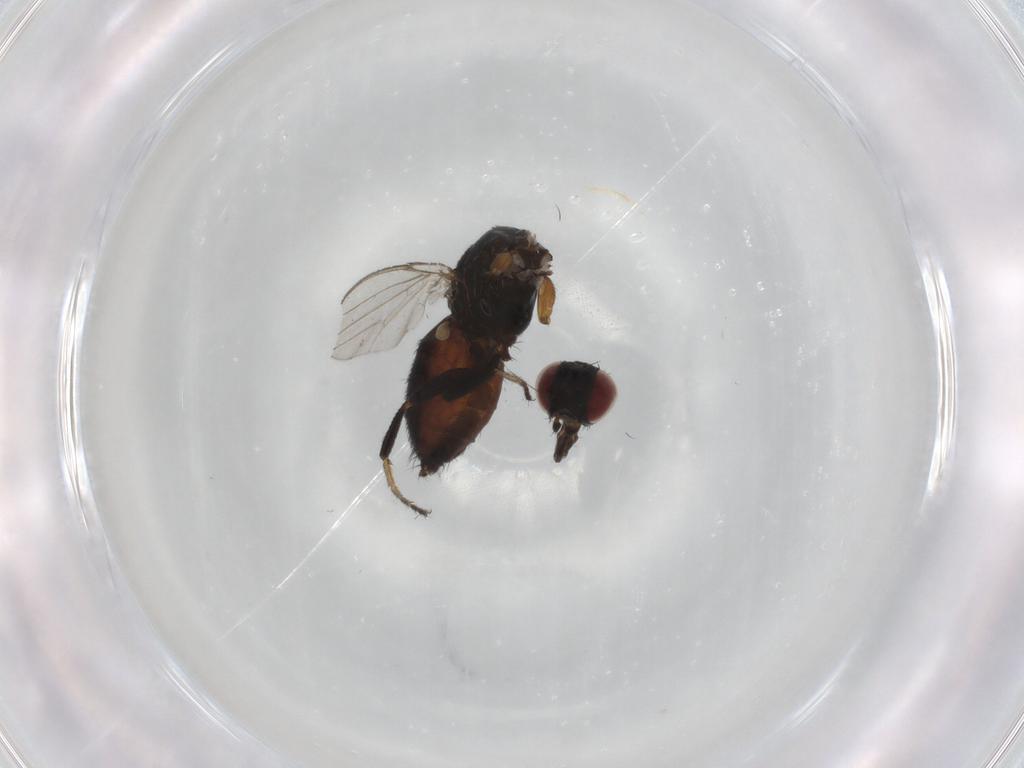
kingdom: Animalia
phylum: Arthropoda
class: Insecta
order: Diptera
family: Milichiidae
